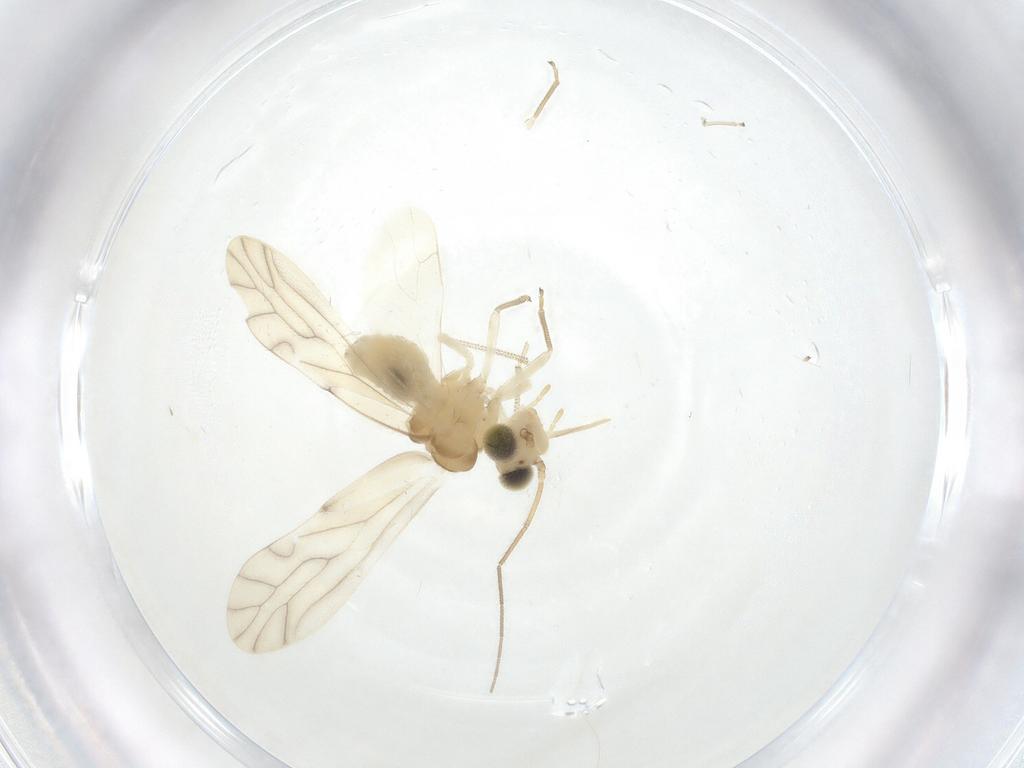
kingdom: Animalia
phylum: Arthropoda
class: Insecta
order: Psocodea
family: Caeciliusidae
